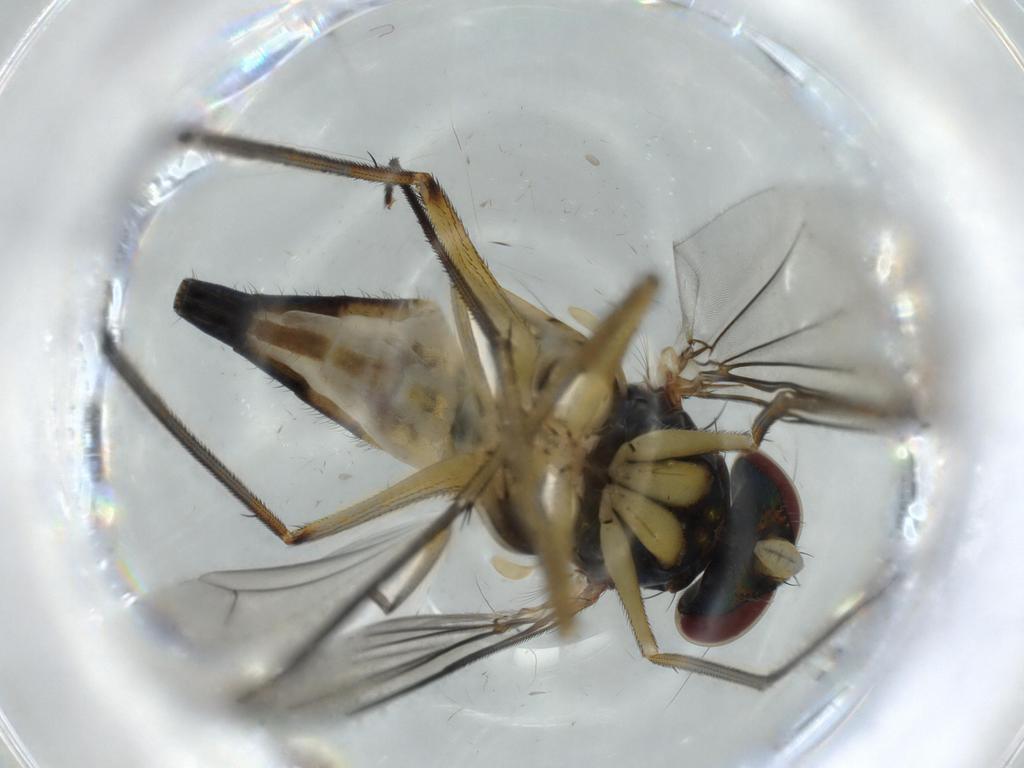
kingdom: Animalia
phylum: Arthropoda
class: Insecta
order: Diptera
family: Dolichopodidae
